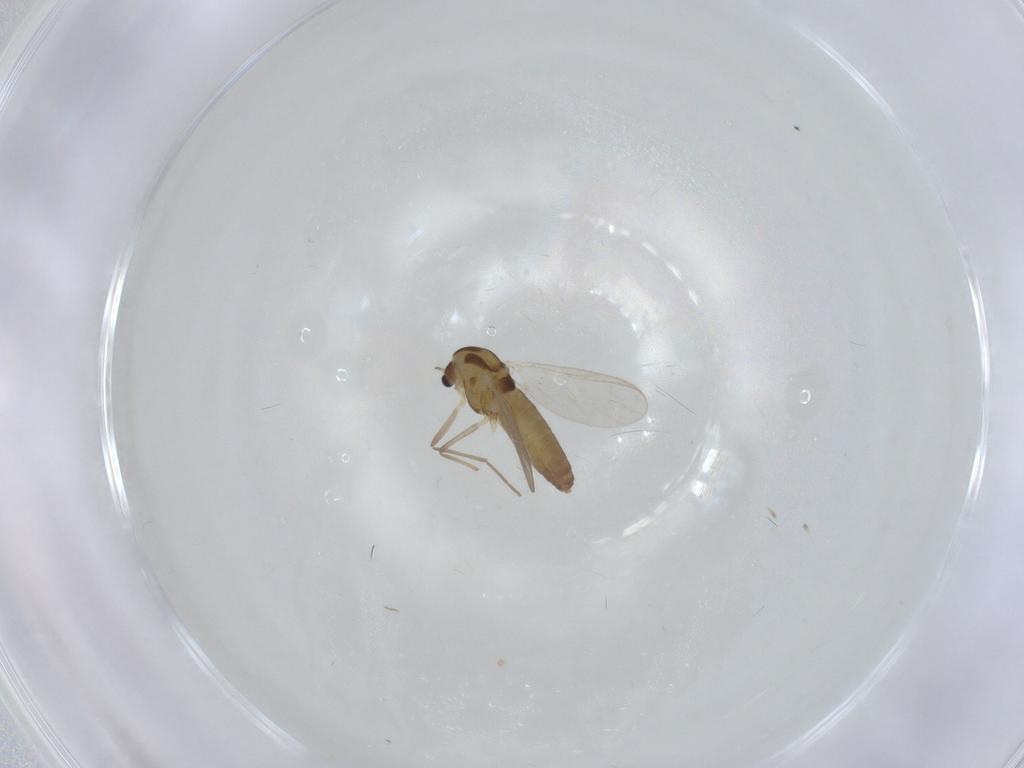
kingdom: Animalia
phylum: Arthropoda
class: Insecta
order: Diptera
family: Chironomidae
